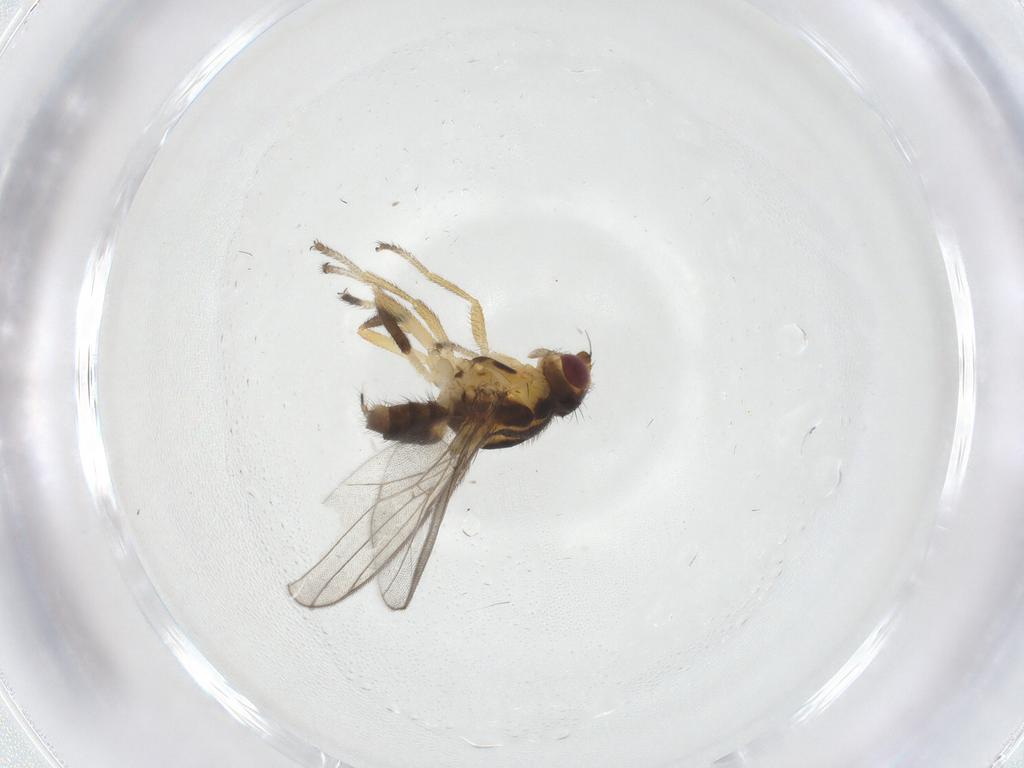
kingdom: Animalia
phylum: Arthropoda
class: Insecta
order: Diptera
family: Chloropidae
